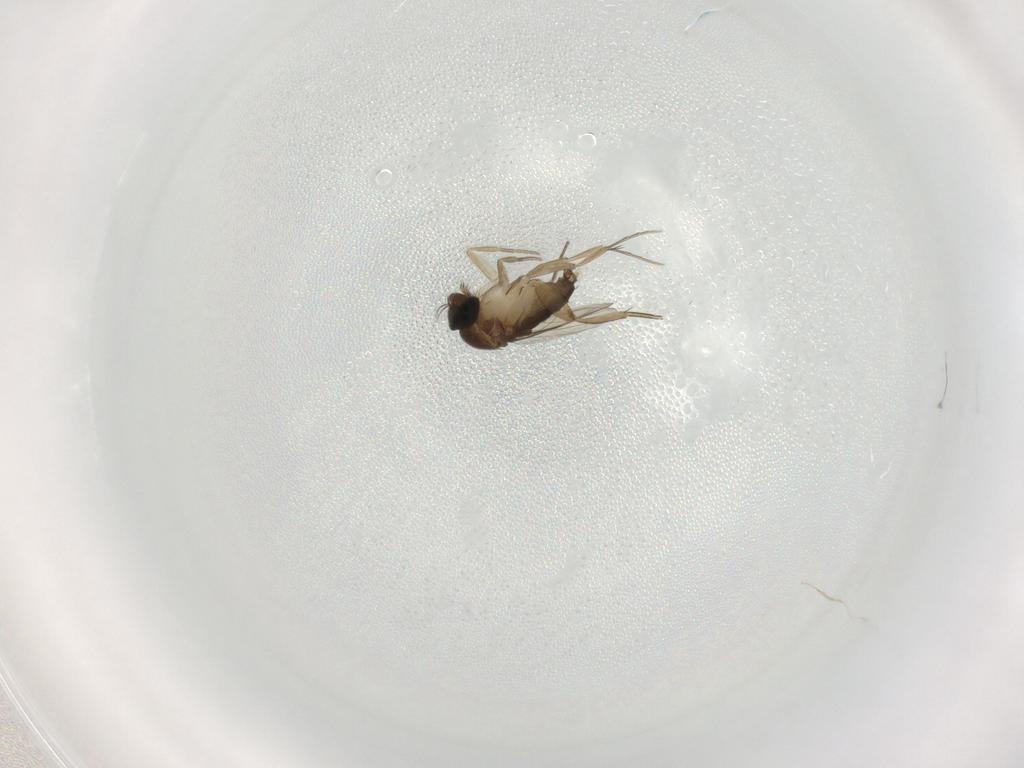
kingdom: Animalia
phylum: Arthropoda
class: Insecta
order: Diptera
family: Phoridae
